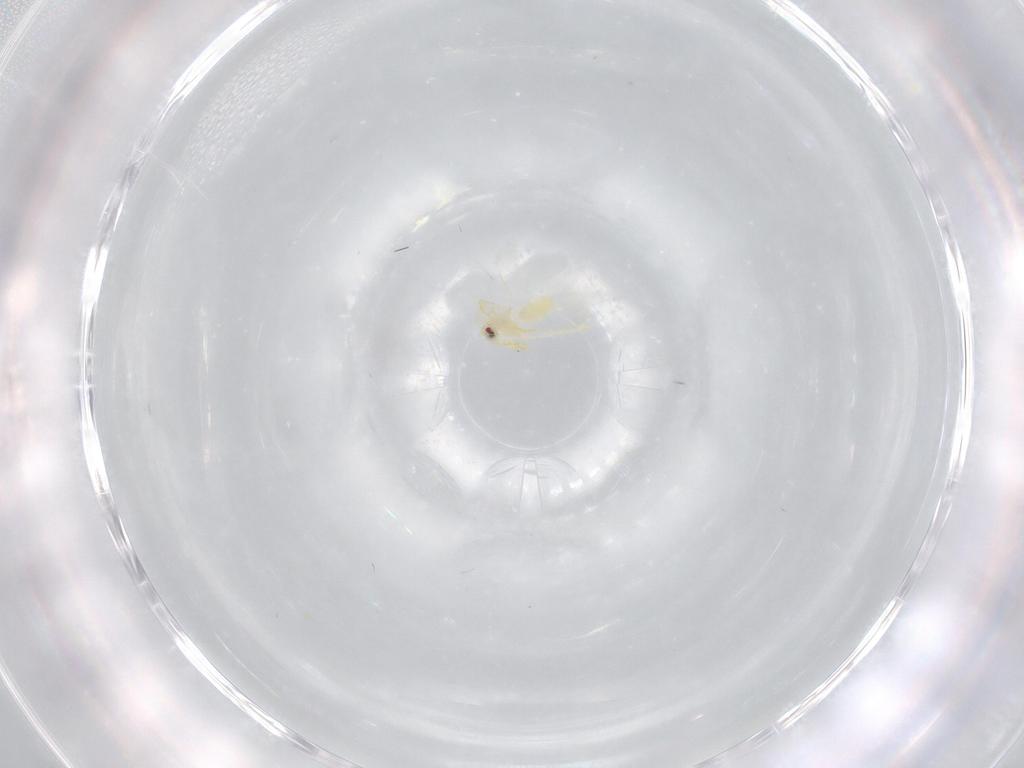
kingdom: Animalia
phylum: Arthropoda
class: Insecta
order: Hemiptera
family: Aleyrodidae
